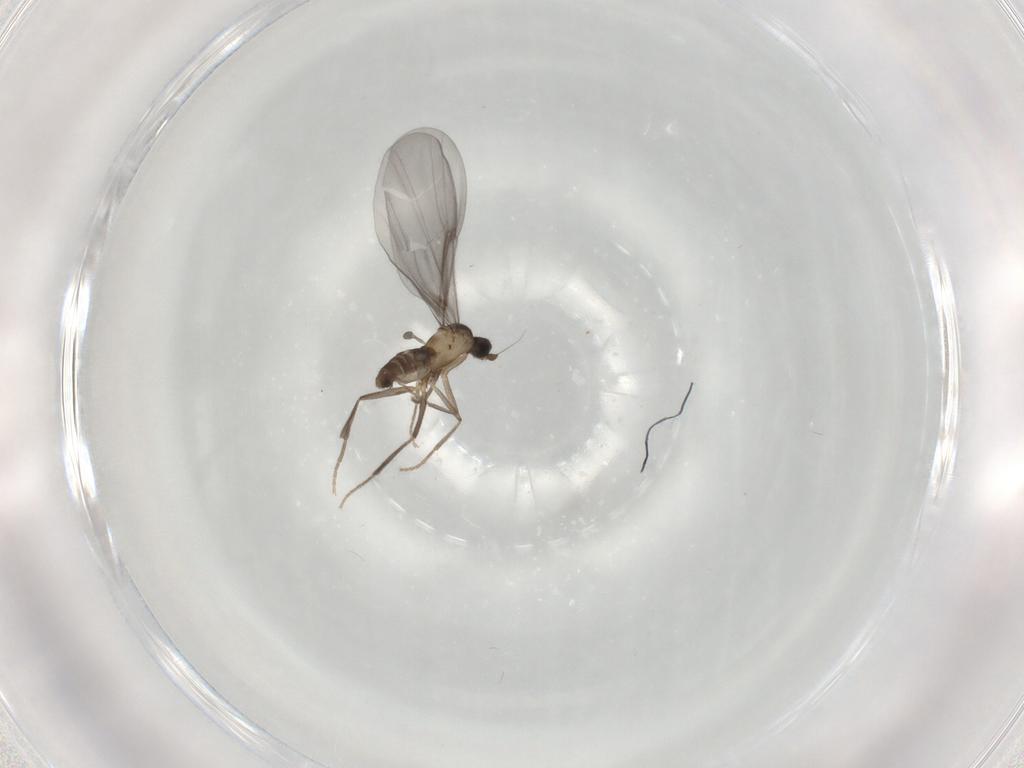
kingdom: Animalia
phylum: Arthropoda
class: Insecta
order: Diptera
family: Phoridae
